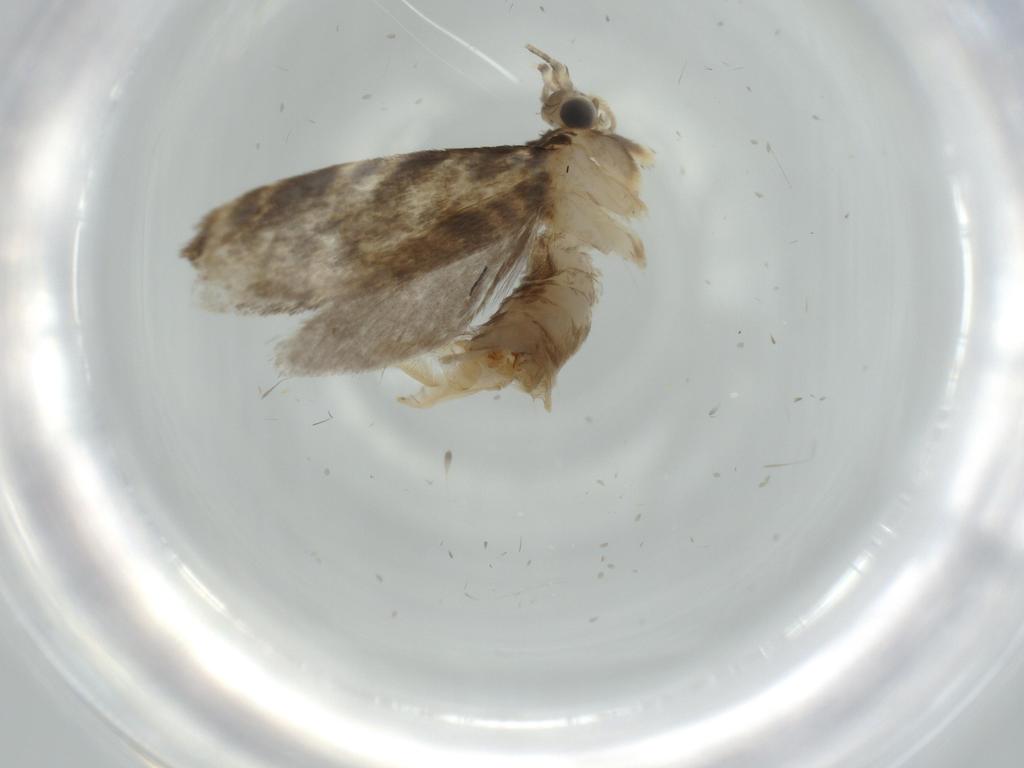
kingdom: Animalia
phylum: Arthropoda
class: Insecta
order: Lepidoptera
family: Tineidae
